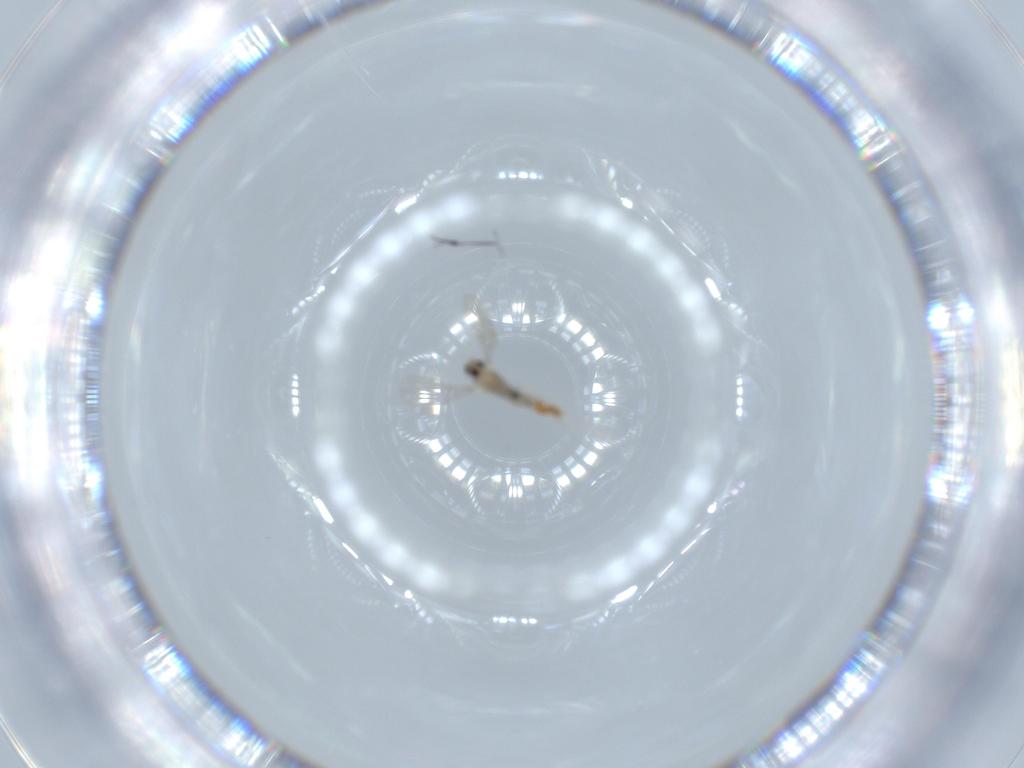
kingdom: Animalia
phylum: Arthropoda
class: Insecta
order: Diptera
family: Cecidomyiidae
